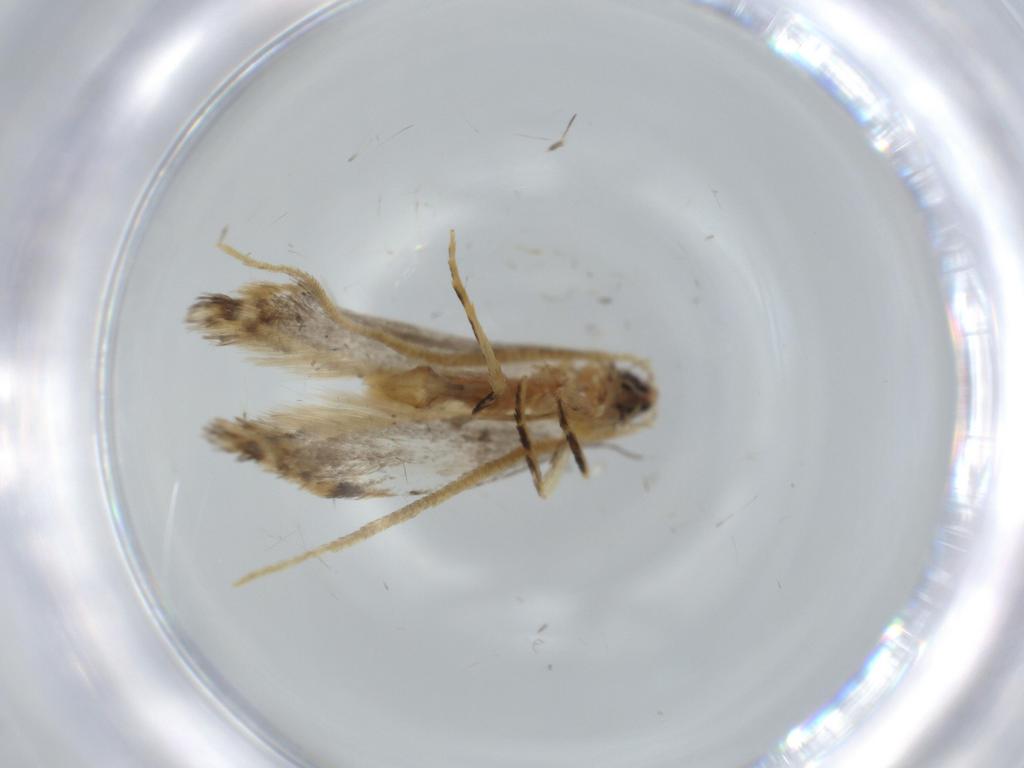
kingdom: Animalia
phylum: Arthropoda
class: Insecta
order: Lepidoptera
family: Tineidae
